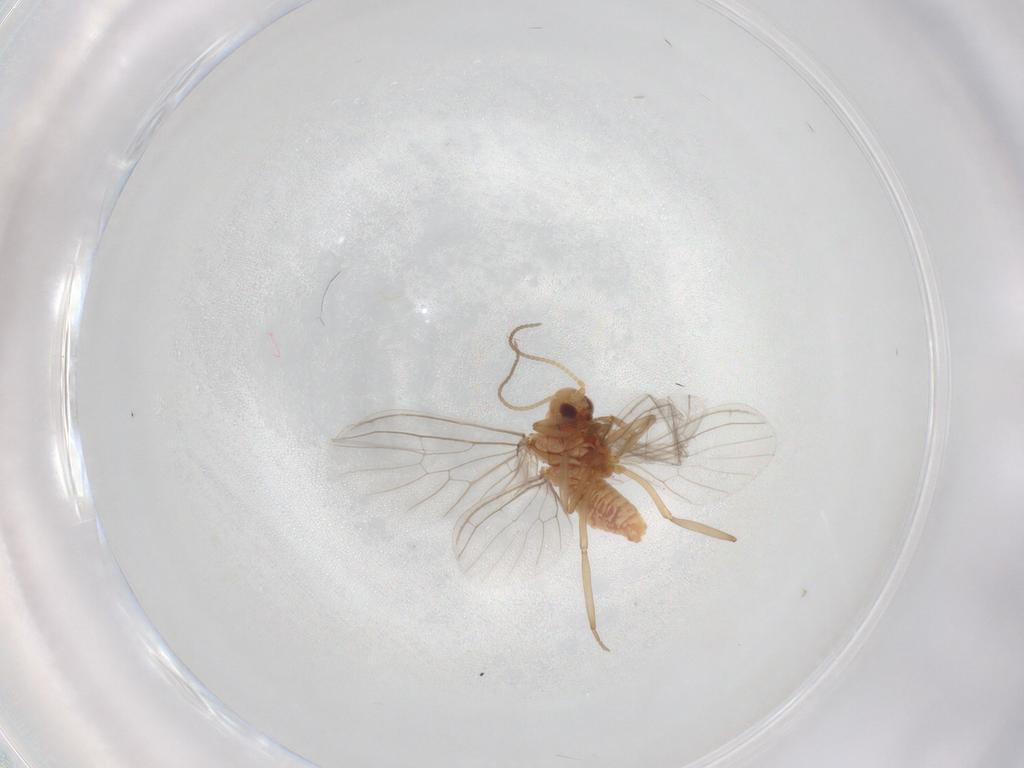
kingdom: Animalia
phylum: Arthropoda
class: Insecta
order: Neuroptera
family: Coniopterygidae
